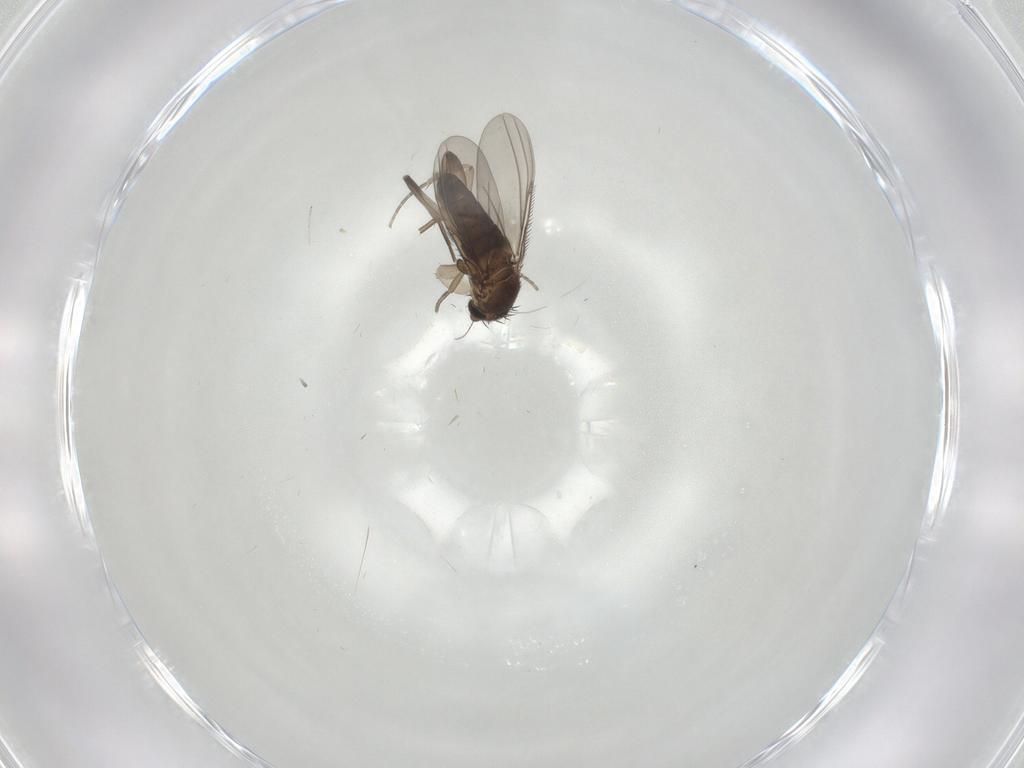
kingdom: Animalia
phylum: Arthropoda
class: Insecta
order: Diptera
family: Phoridae
